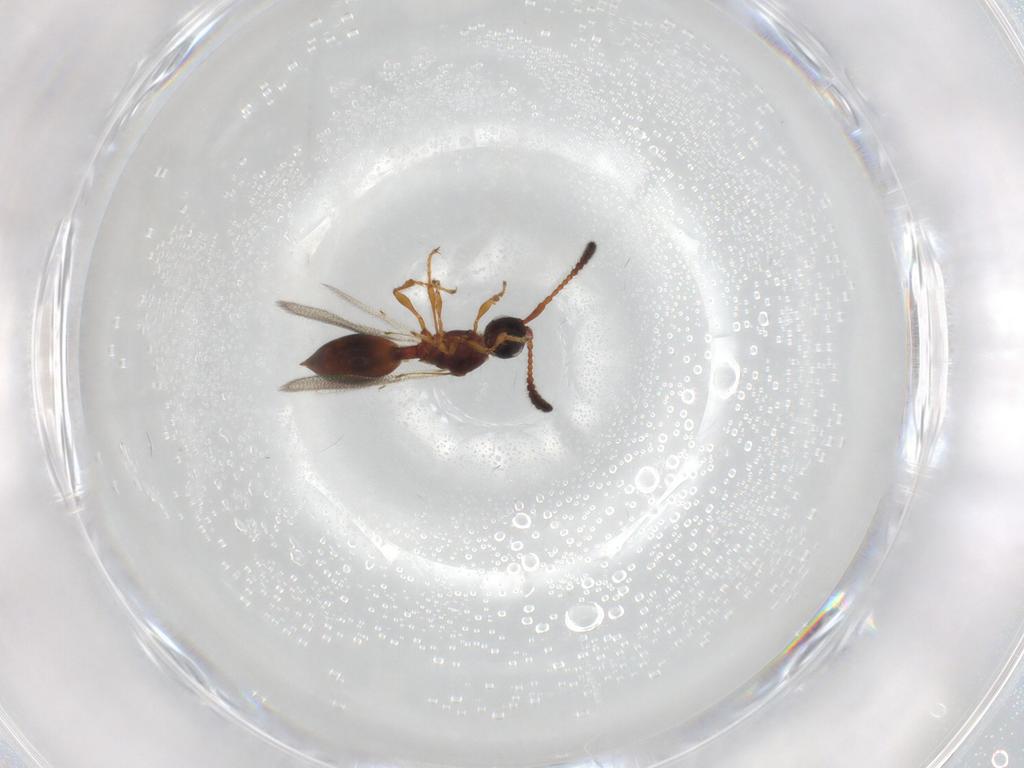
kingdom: Animalia
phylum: Arthropoda
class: Insecta
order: Hymenoptera
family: Diapriidae
